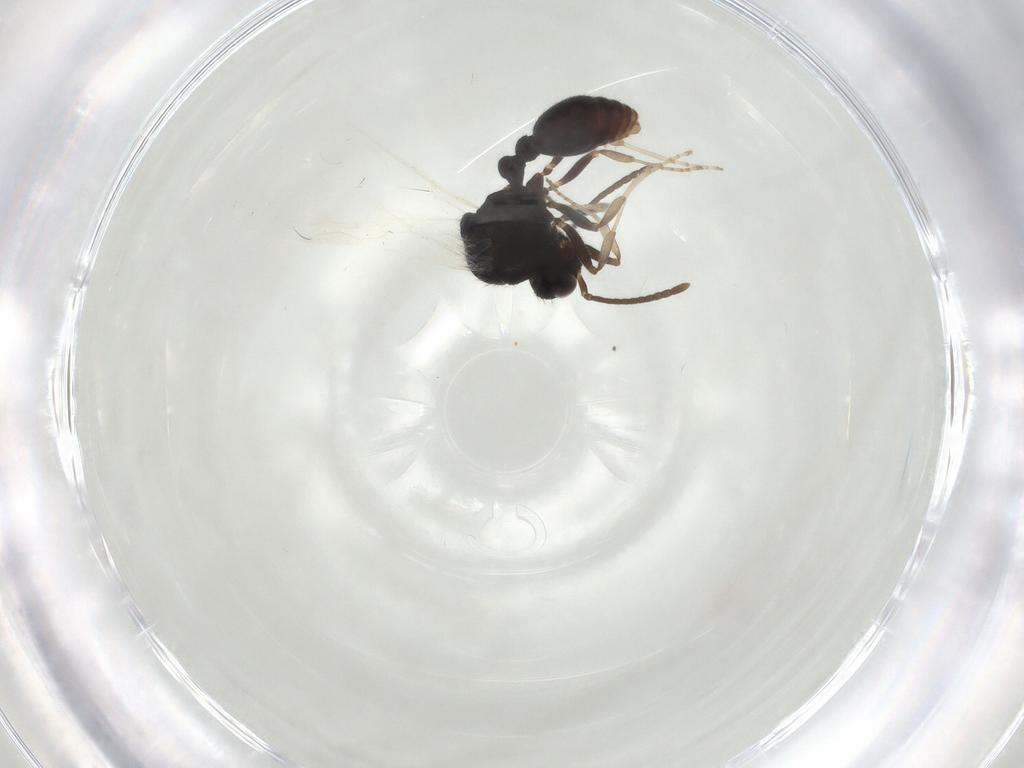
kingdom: Animalia
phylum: Arthropoda
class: Insecta
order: Hymenoptera
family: Formicidae
